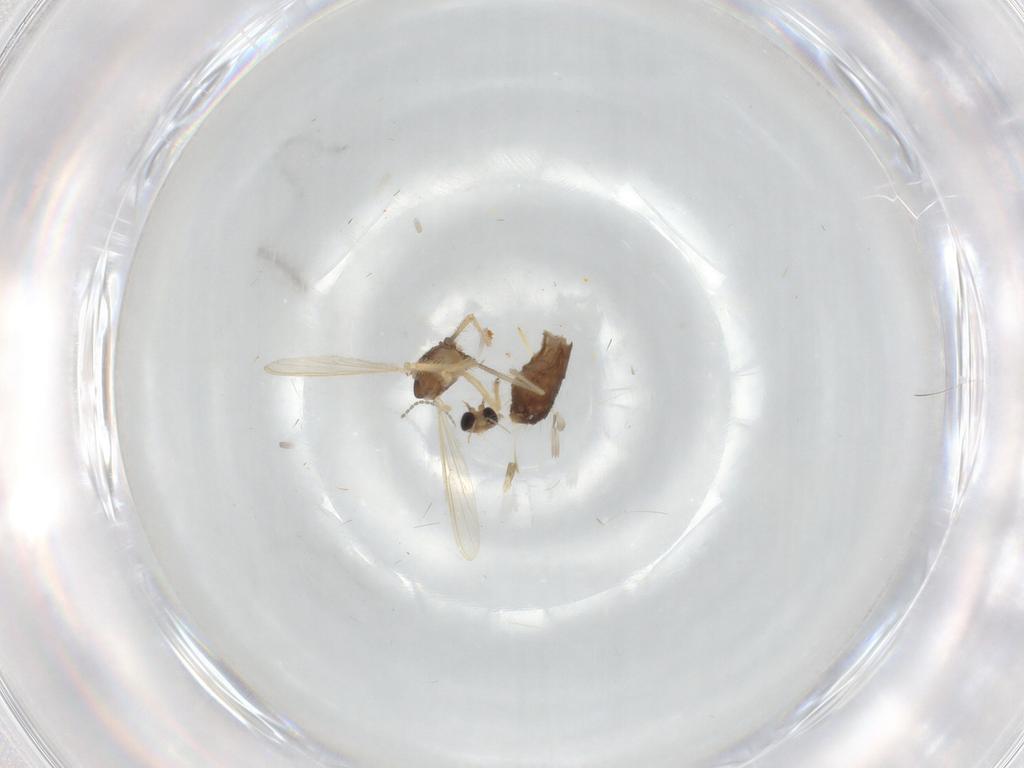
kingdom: Animalia
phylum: Arthropoda
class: Insecta
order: Diptera
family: Chironomidae
